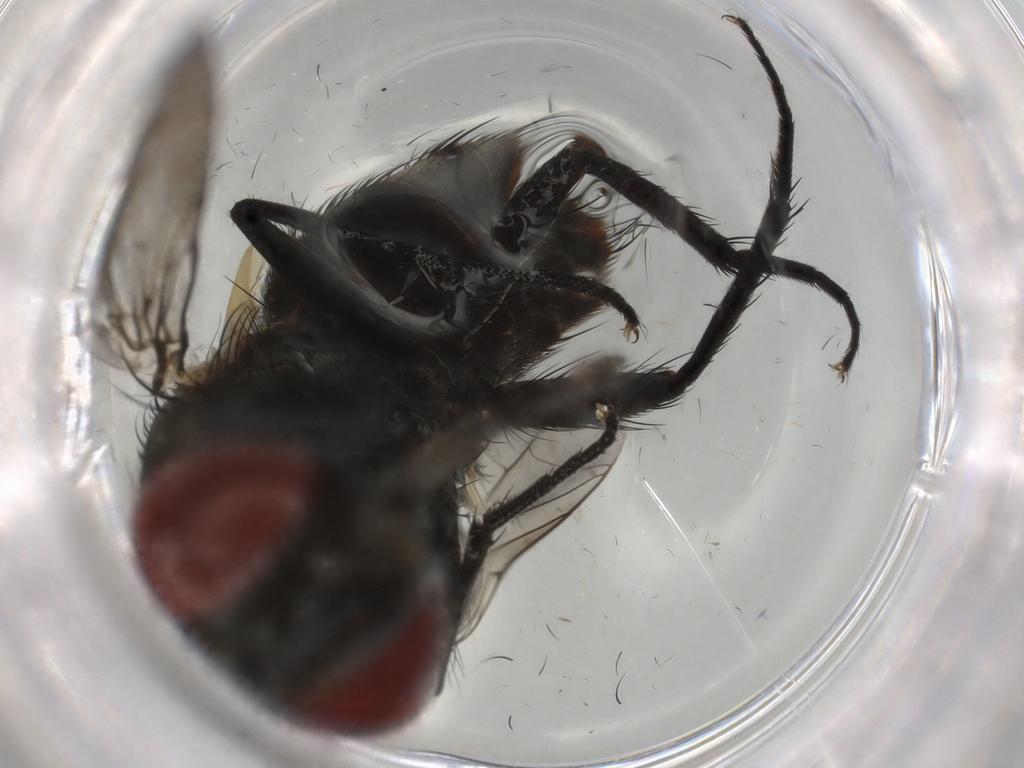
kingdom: Animalia
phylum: Arthropoda
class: Insecta
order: Diptera
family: Sarcophagidae
